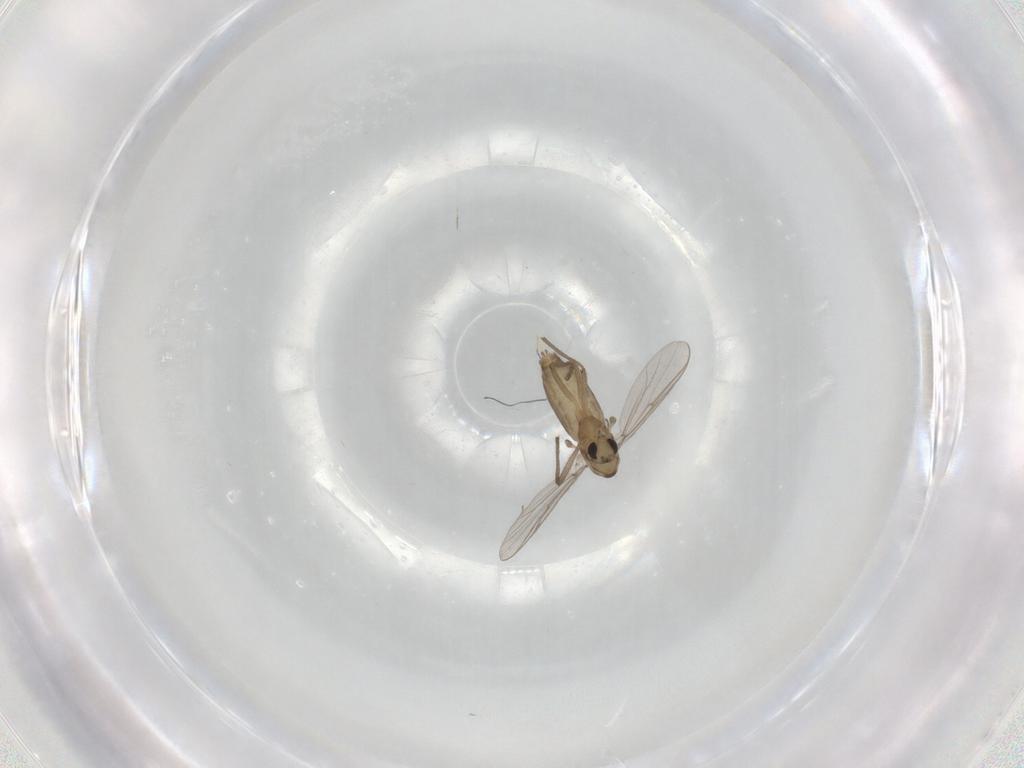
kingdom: Animalia
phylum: Arthropoda
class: Insecta
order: Diptera
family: Chironomidae
